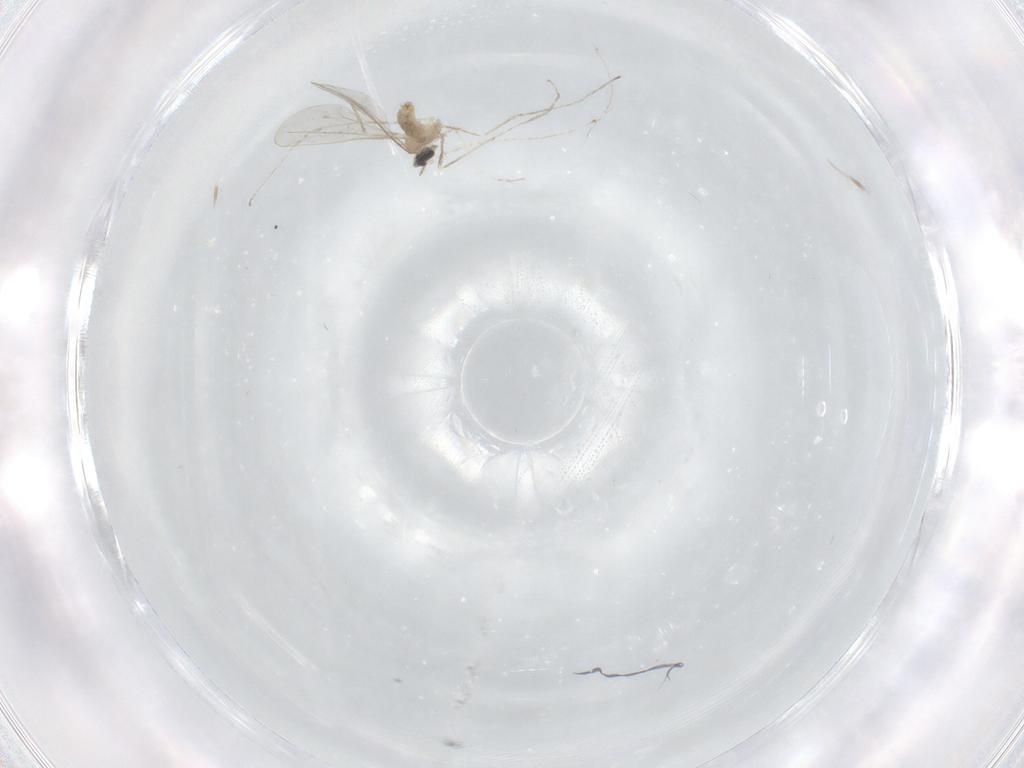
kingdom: Animalia
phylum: Arthropoda
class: Insecta
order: Diptera
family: Cecidomyiidae
